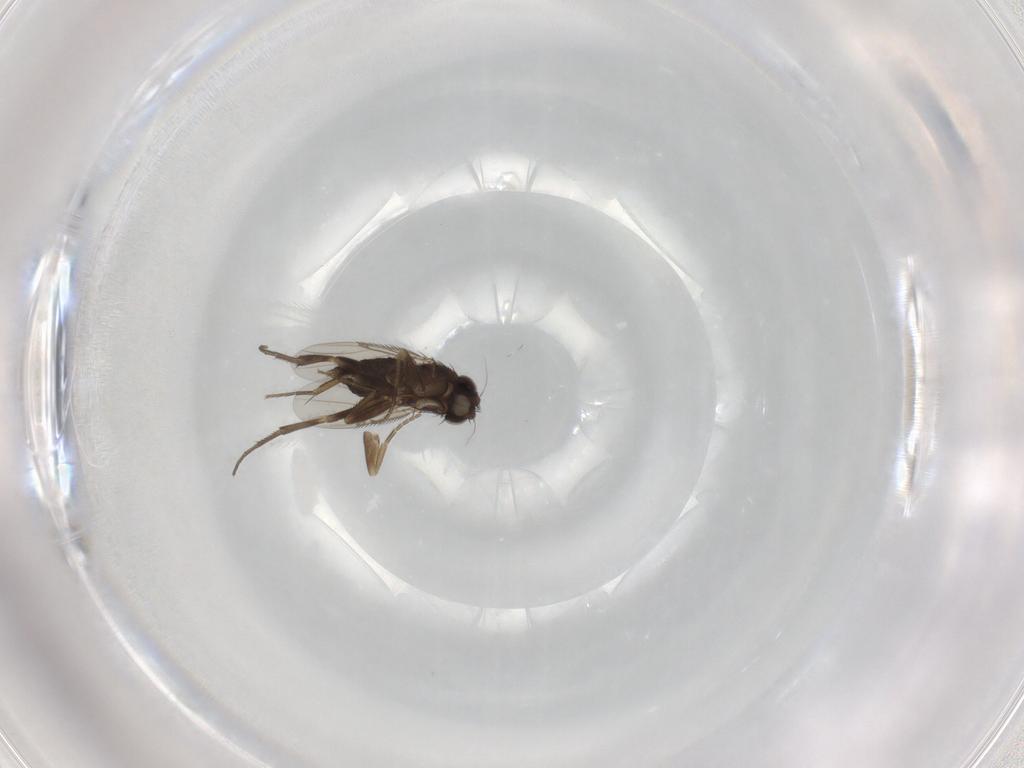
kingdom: Animalia
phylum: Arthropoda
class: Insecta
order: Diptera
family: Phoridae
